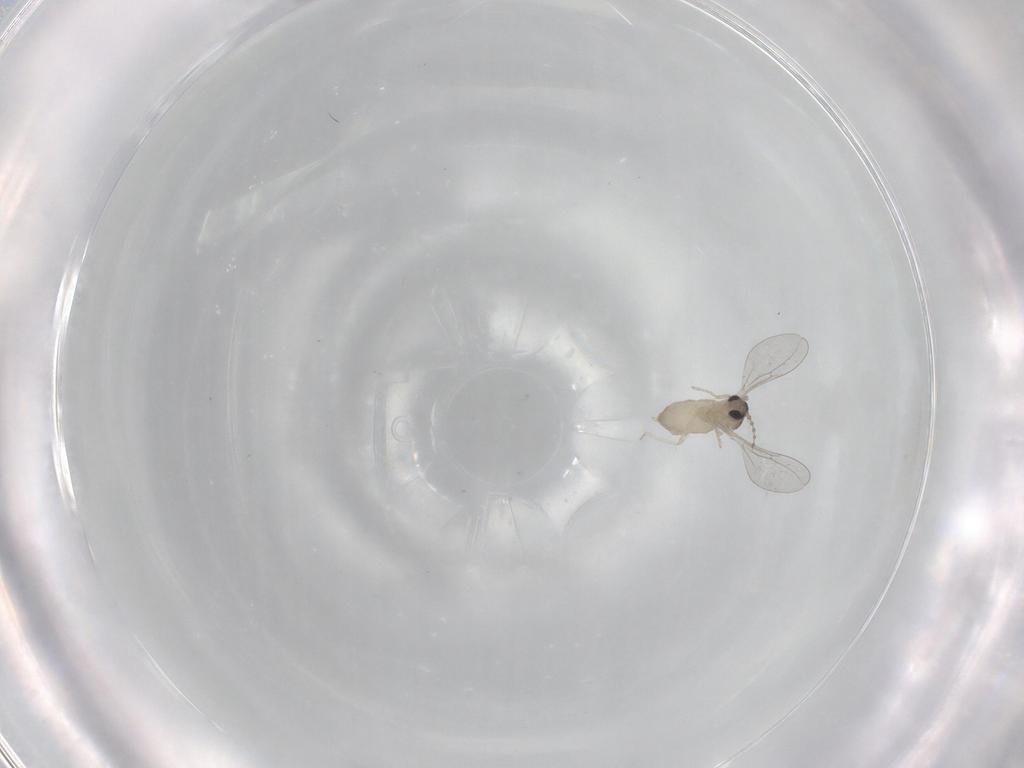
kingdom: Animalia
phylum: Arthropoda
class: Insecta
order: Diptera
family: Cecidomyiidae
